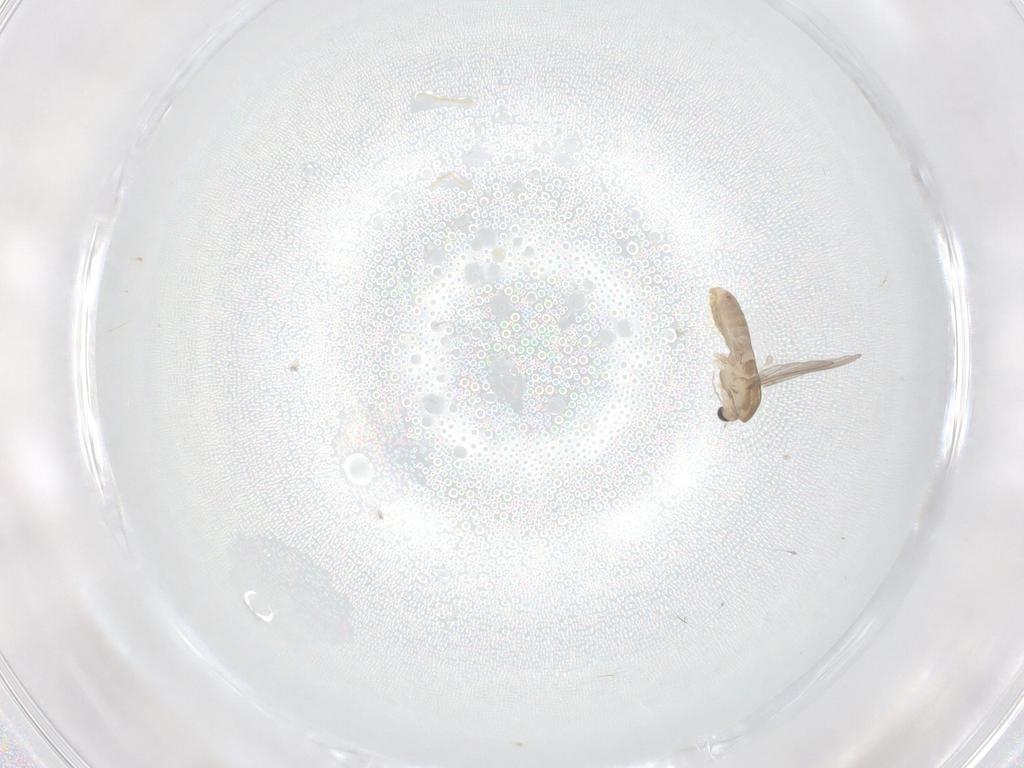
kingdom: Animalia
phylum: Arthropoda
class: Insecta
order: Diptera
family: Chironomidae
